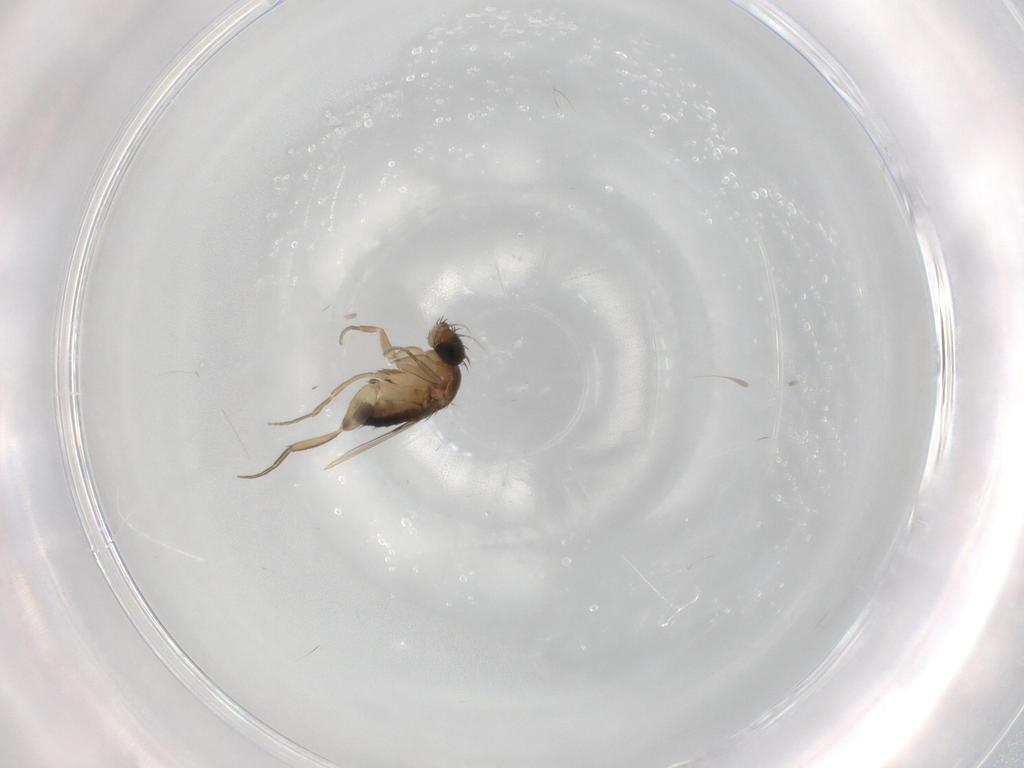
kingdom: Animalia
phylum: Arthropoda
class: Insecta
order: Diptera
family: Phoridae
